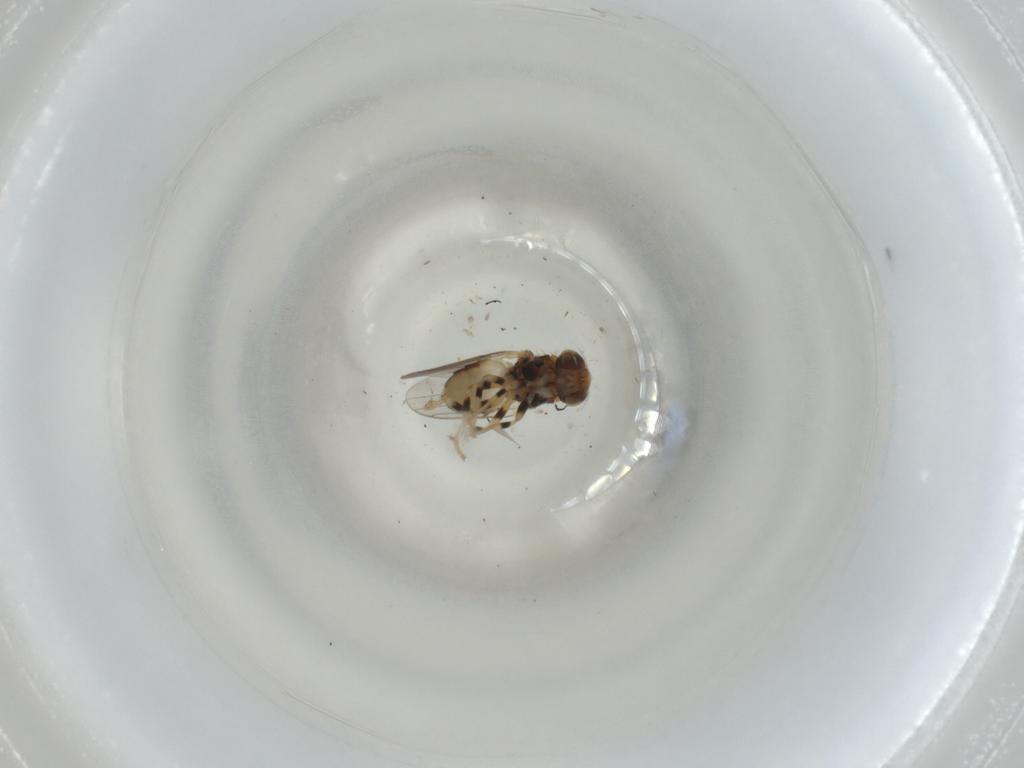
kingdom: Animalia
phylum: Arthropoda
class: Insecta
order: Diptera
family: Chloropidae
